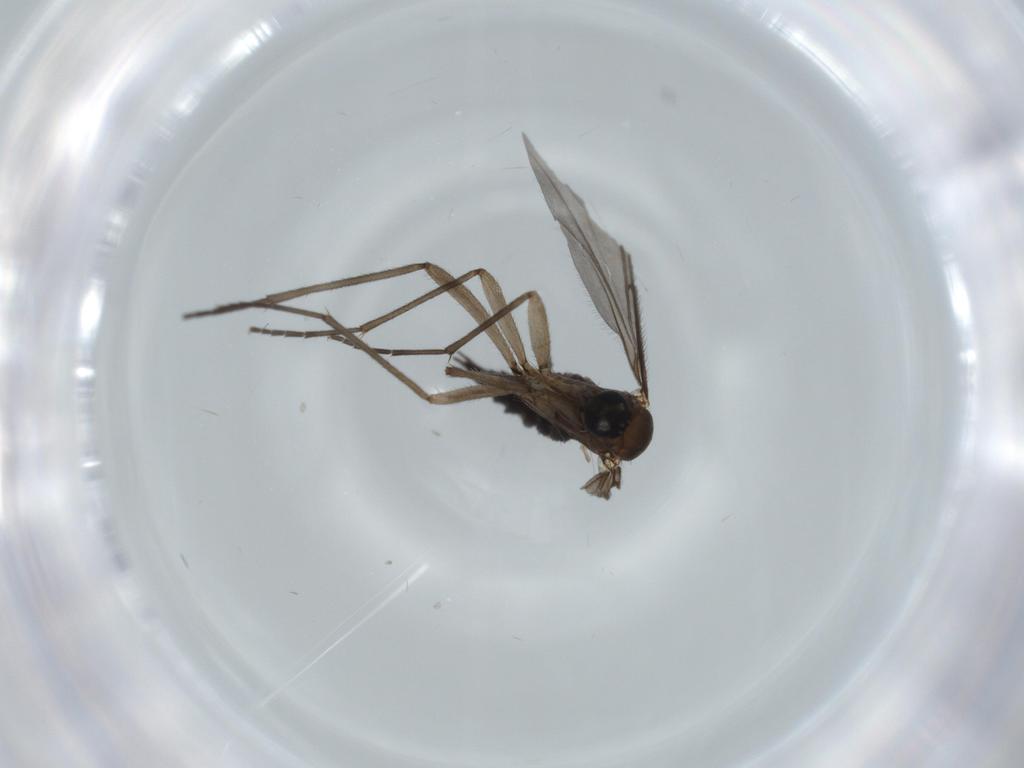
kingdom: Animalia
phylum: Arthropoda
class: Insecta
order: Diptera
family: Sciaridae
